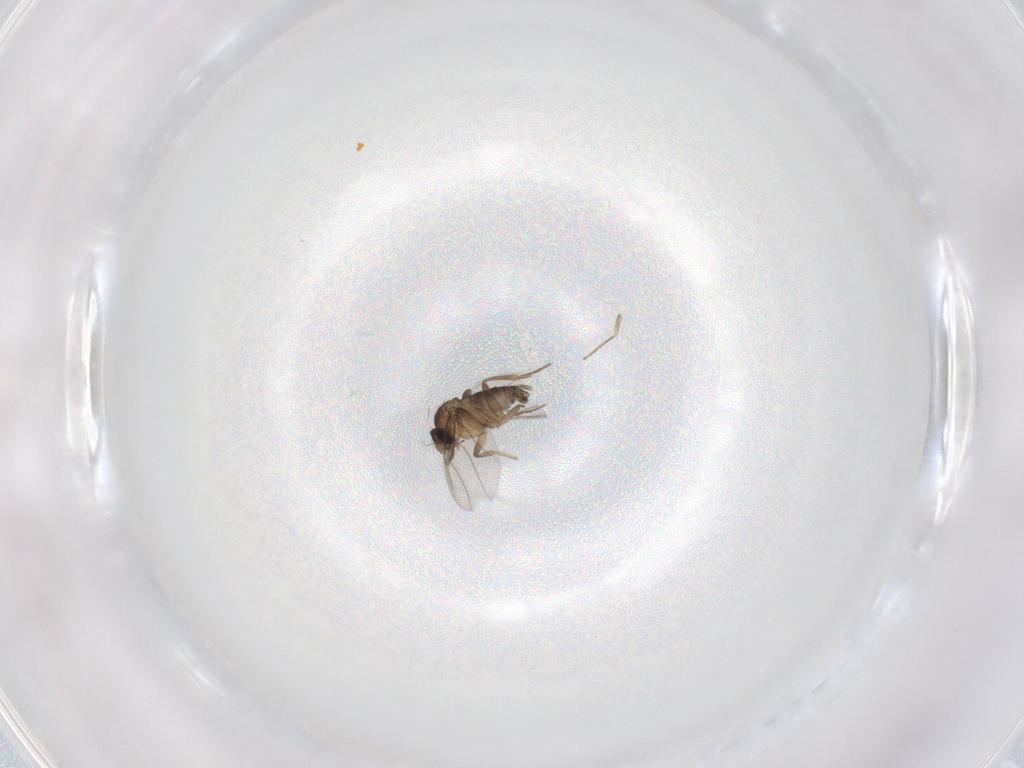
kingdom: Animalia
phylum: Arthropoda
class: Insecta
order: Diptera
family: Phoridae
